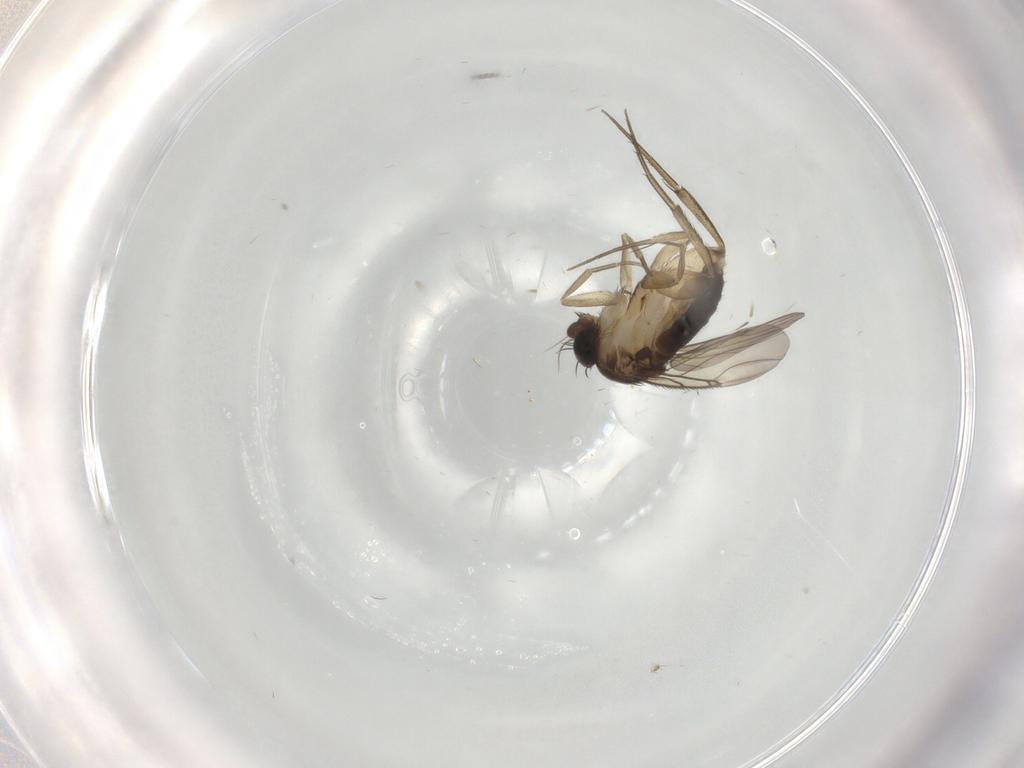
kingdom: Animalia
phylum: Arthropoda
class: Insecta
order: Diptera
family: Phoridae
